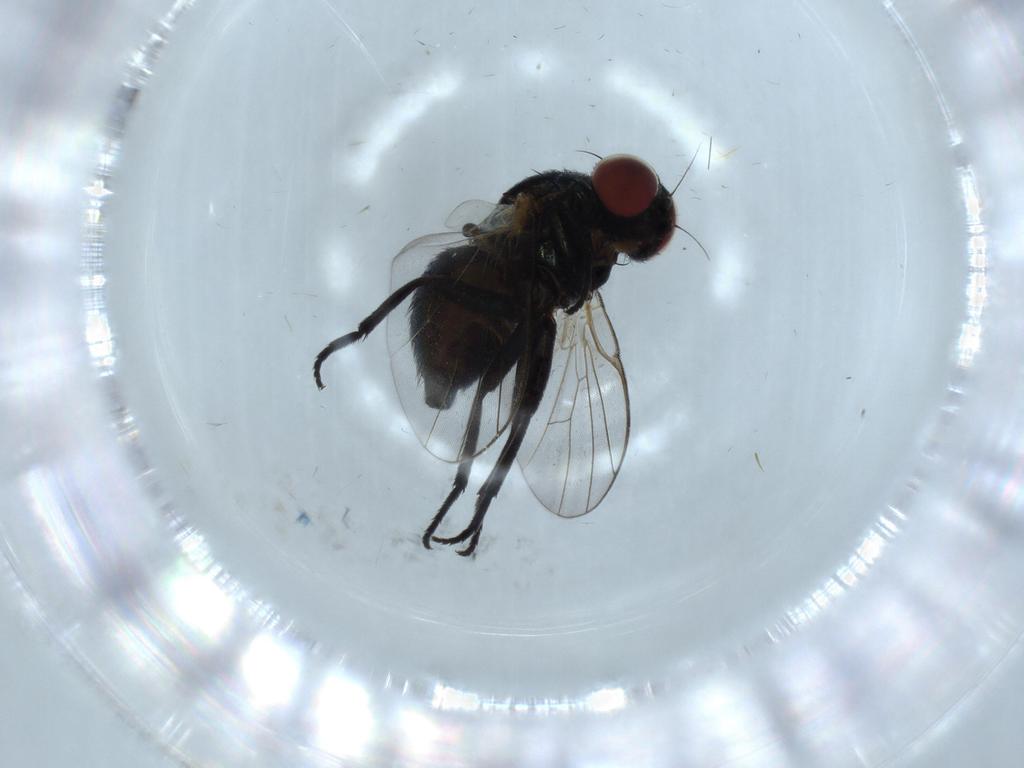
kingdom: Animalia
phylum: Arthropoda
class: Insecta
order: Diptera
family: Agromyzidae
